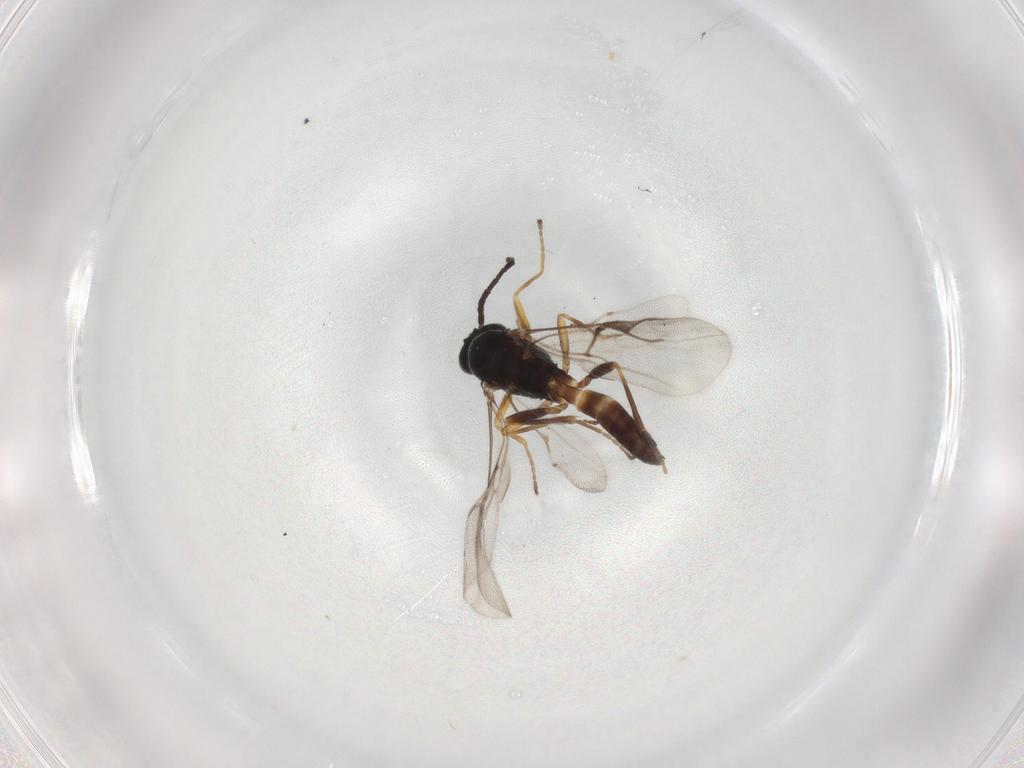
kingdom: Animalia
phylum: Arthropoda
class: Insecta
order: Hymenoptera
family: Braconidae
